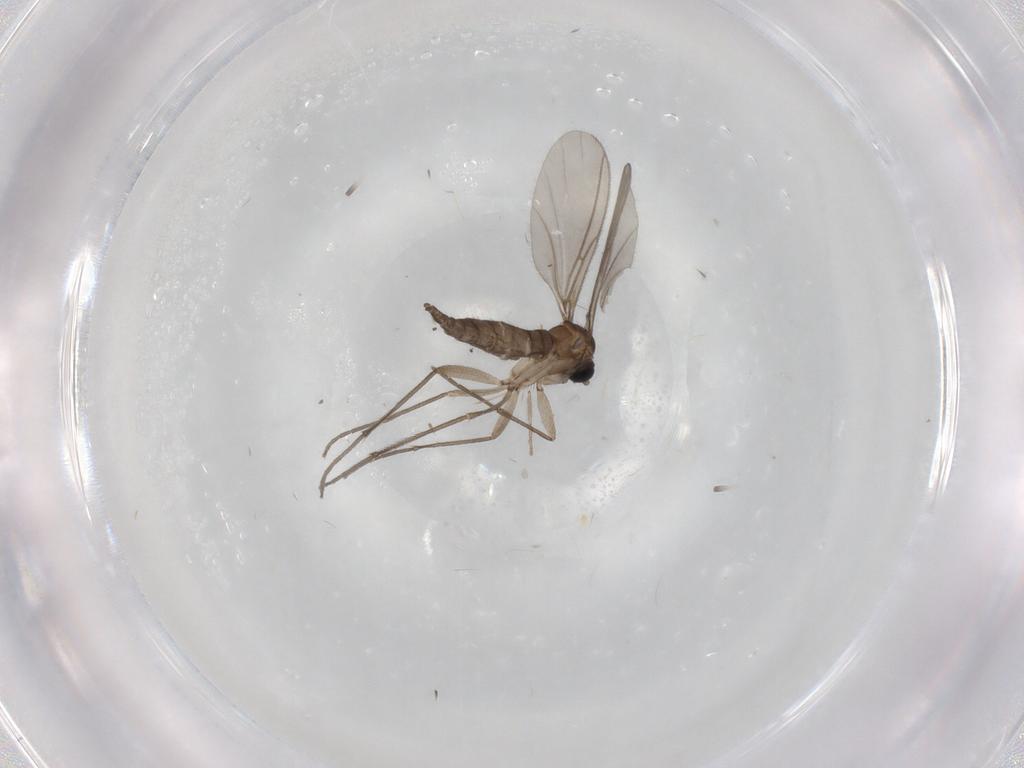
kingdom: Animalia
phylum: Arthropoda
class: Insecta
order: Diptera
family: Sciaridae
